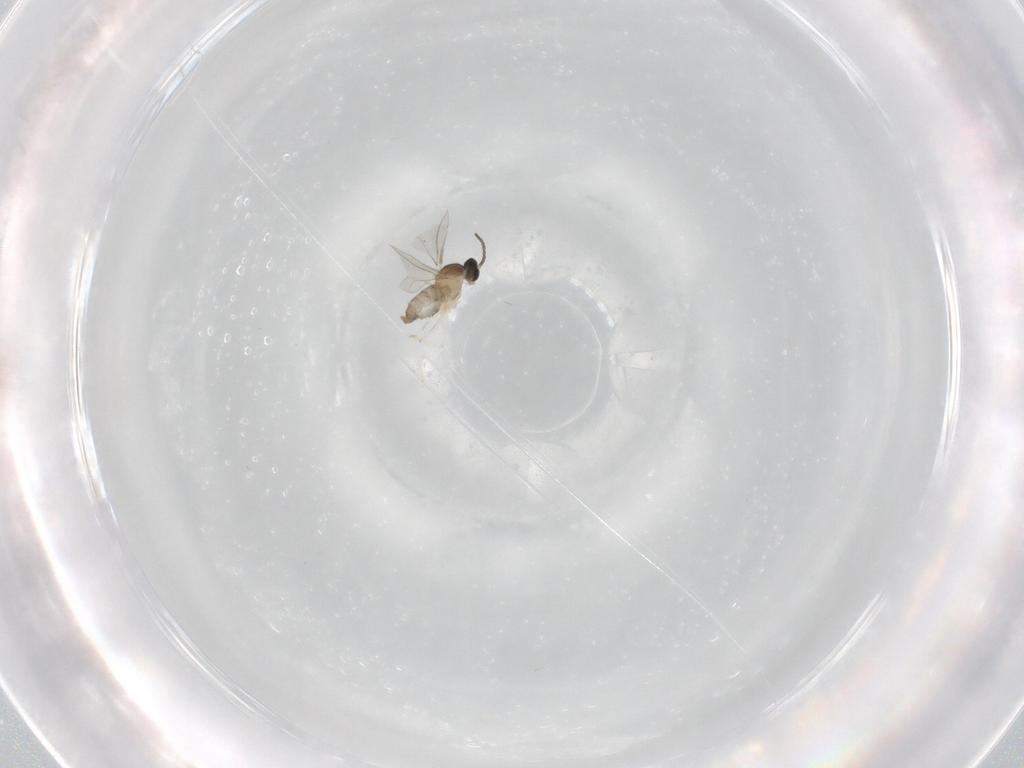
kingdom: Animalia
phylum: Arthropoda
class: Insecta
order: Diptera
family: Cecidomyiidae
